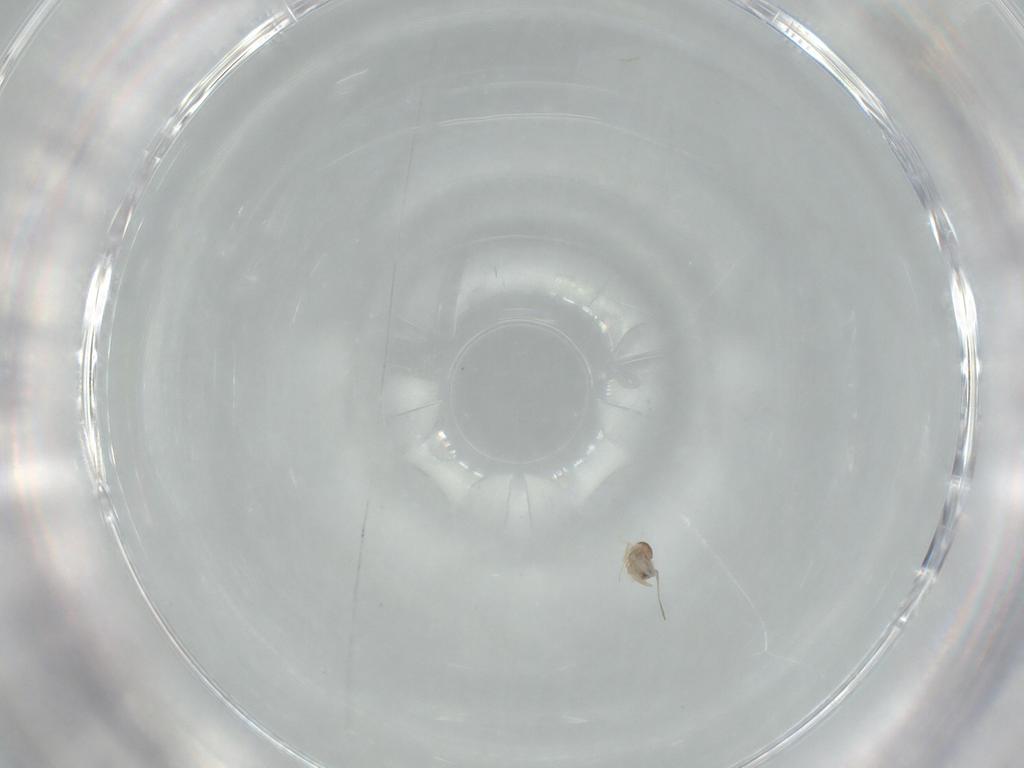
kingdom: Animalia
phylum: Arthropoda
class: Insecta
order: Diptera
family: Cecidomyiidae
